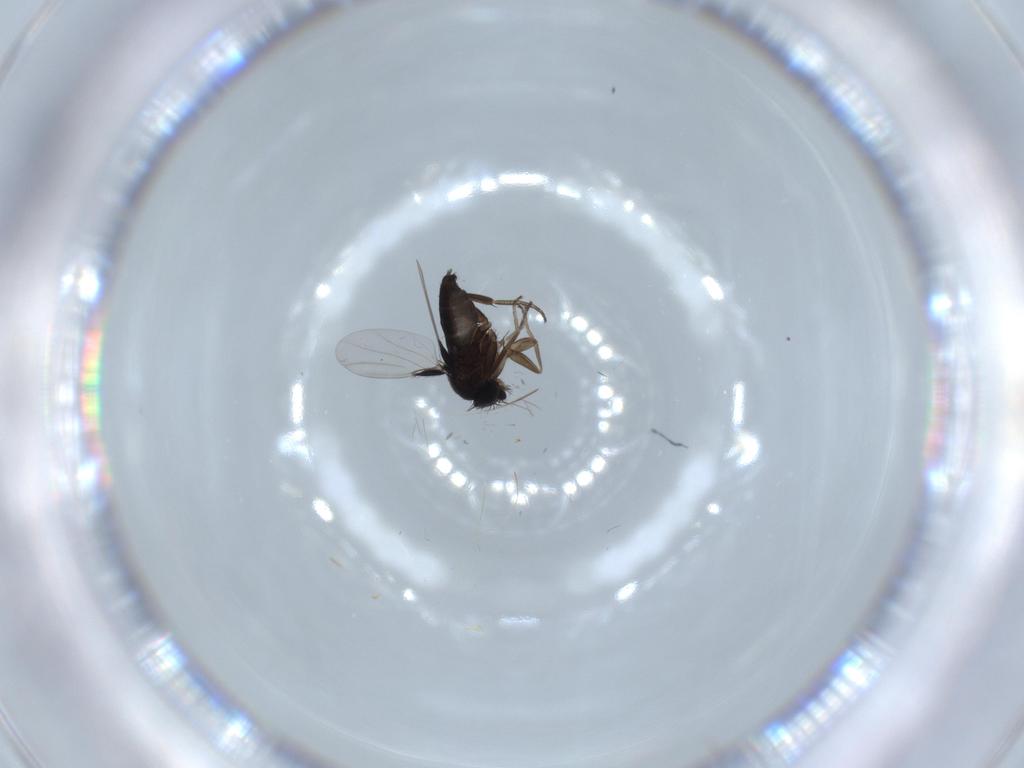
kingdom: Animalia
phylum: Arthropoda
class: Insecta
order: Diptera
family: Phoridae
